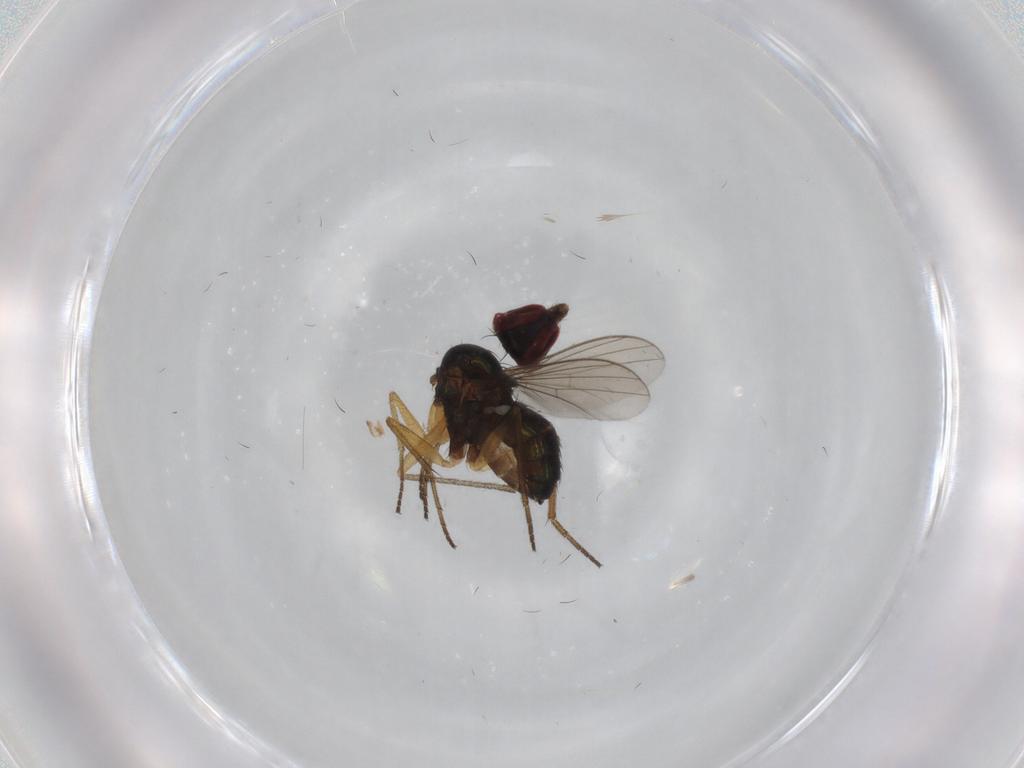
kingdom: Animalia
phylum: Arthropoda
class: Insecta
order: Diptera
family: Dolichopodidae
